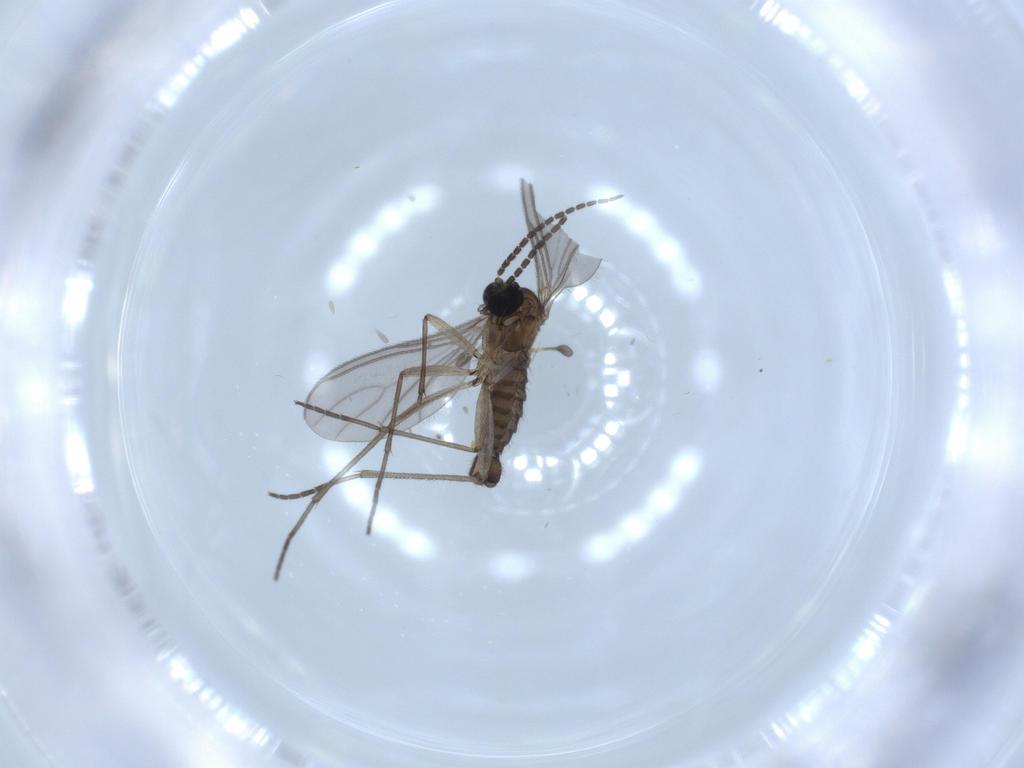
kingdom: Animalia
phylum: Arthropoda
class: Insecta
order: Diptera
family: Sciaridae
